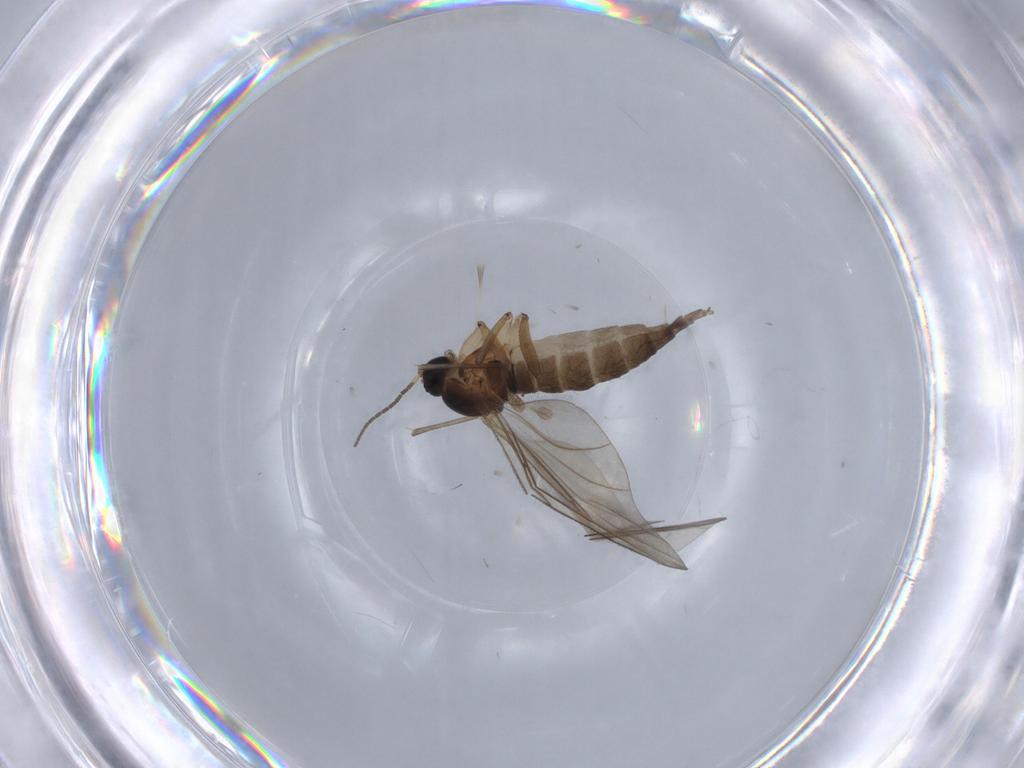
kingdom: Animalia
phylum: Arthropoda
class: Insecta
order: Diptera
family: Sciaridae
